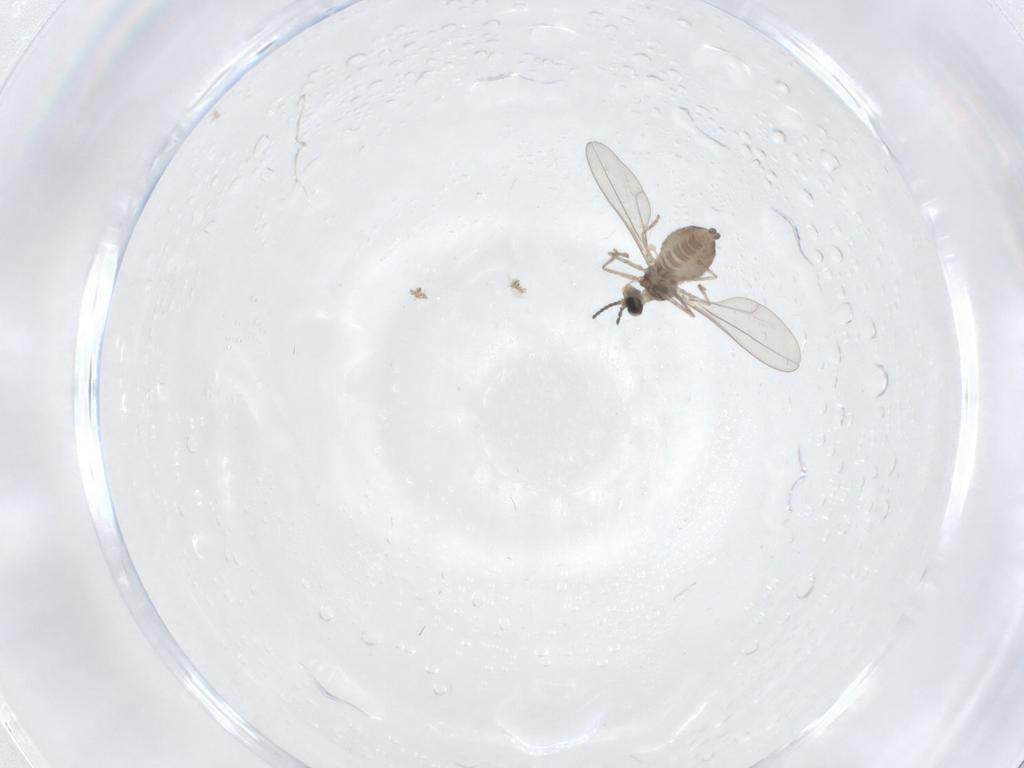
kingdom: Animalia
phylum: Arthropoda
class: Insecta
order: Diptera
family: Cecidomyiidae
